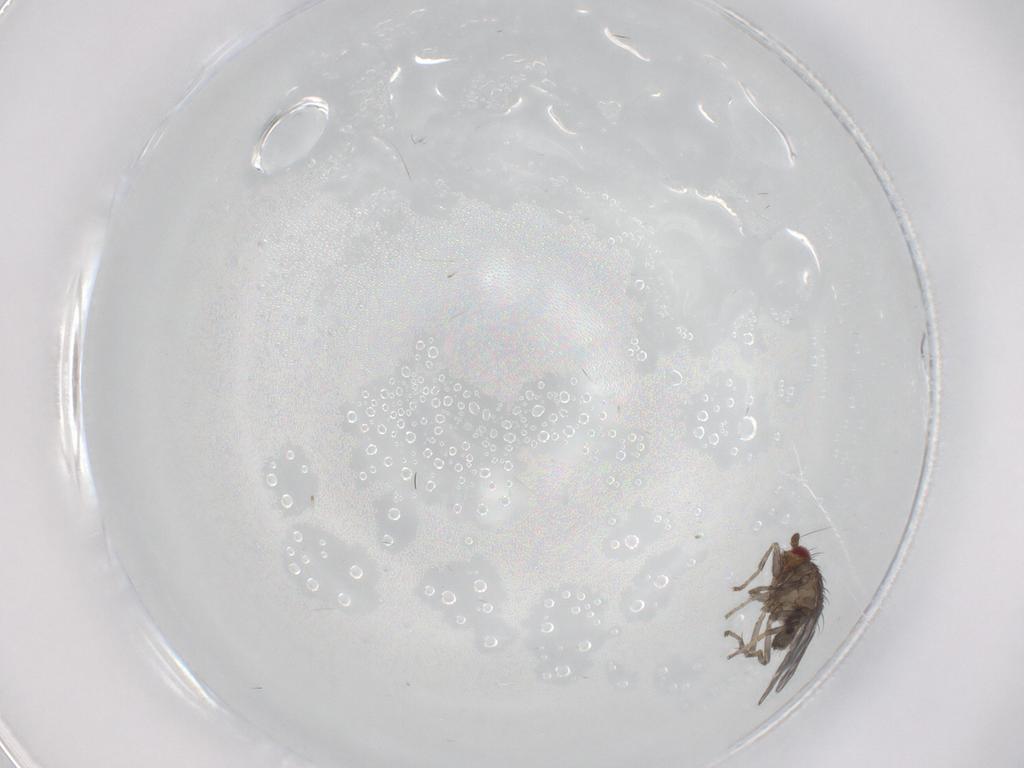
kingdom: Animalia
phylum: Arthropoda
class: Insecta
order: Diptera
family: Sphaeroceridae
